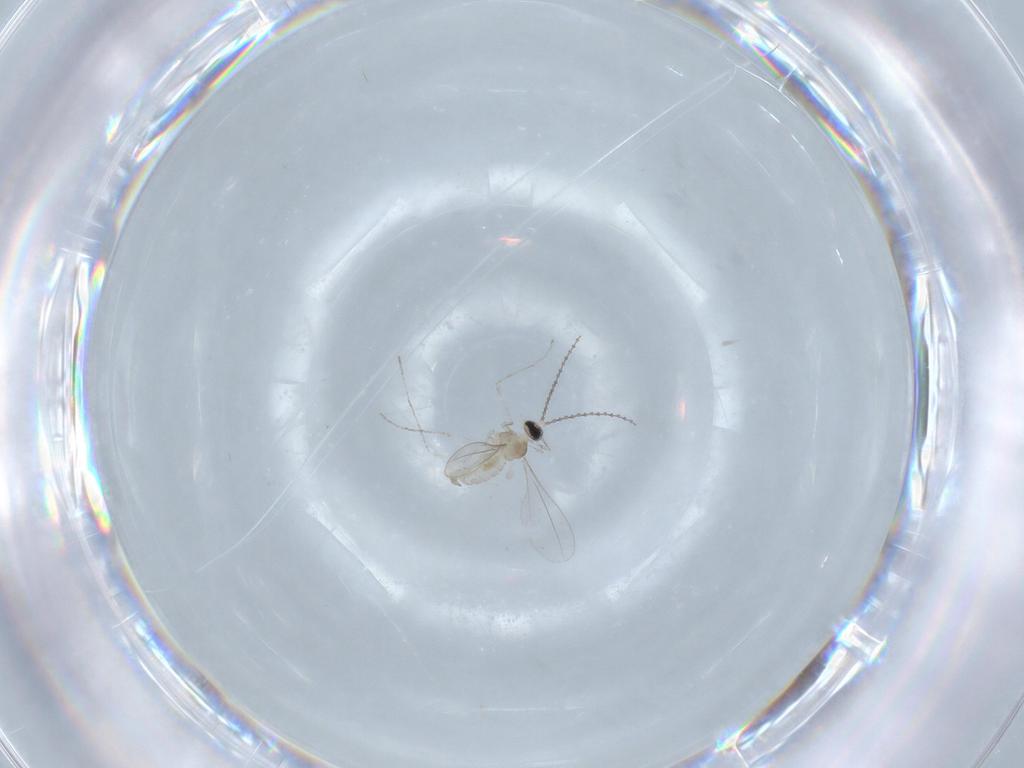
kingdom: Animalia
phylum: Arthropoda
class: Insecta
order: Diptera
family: Cecidomyiidae
